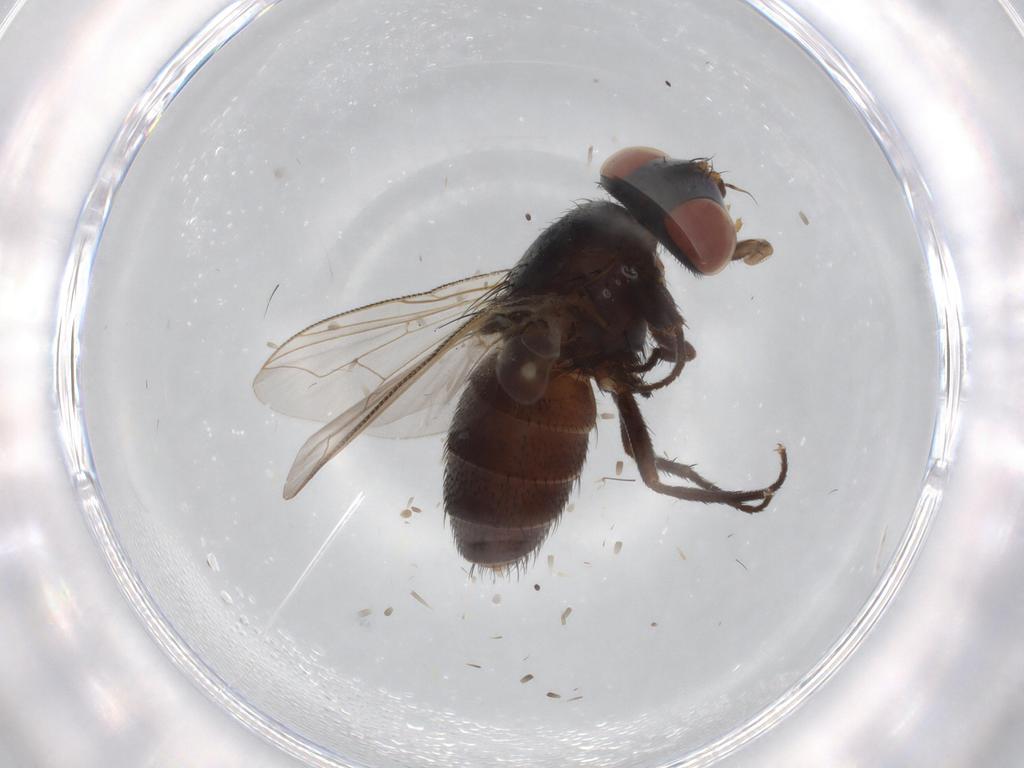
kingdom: Animalia
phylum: Arthropoda
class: Insecta
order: Diptera
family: Sarcophagidae
